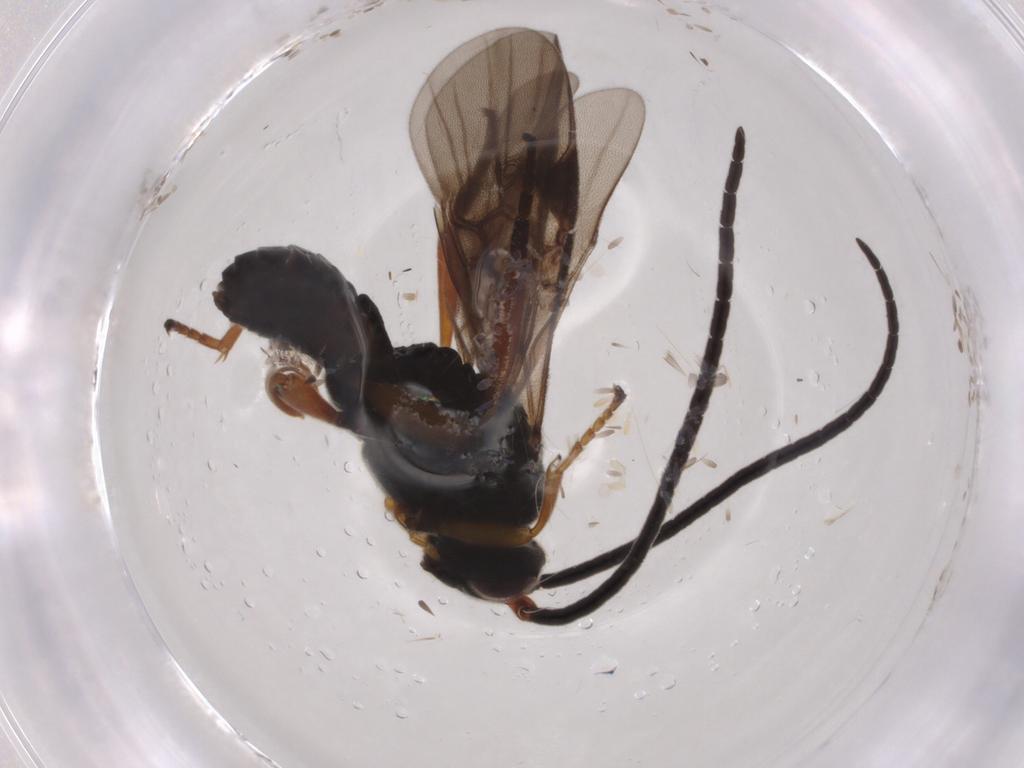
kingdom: Animalia
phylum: Arthropoda
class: Insecta
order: Hymenoptera
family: Braconidae
